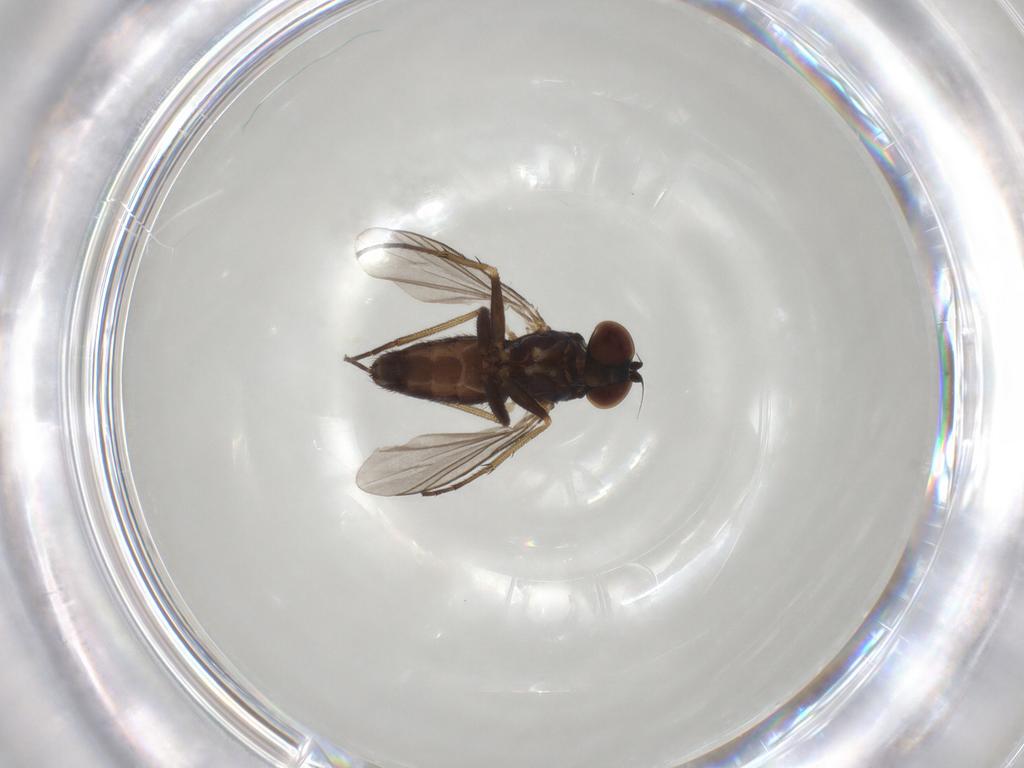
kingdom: Animalia
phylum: Arthropoda
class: Insecta
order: Diptera
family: Dolichopodidae
